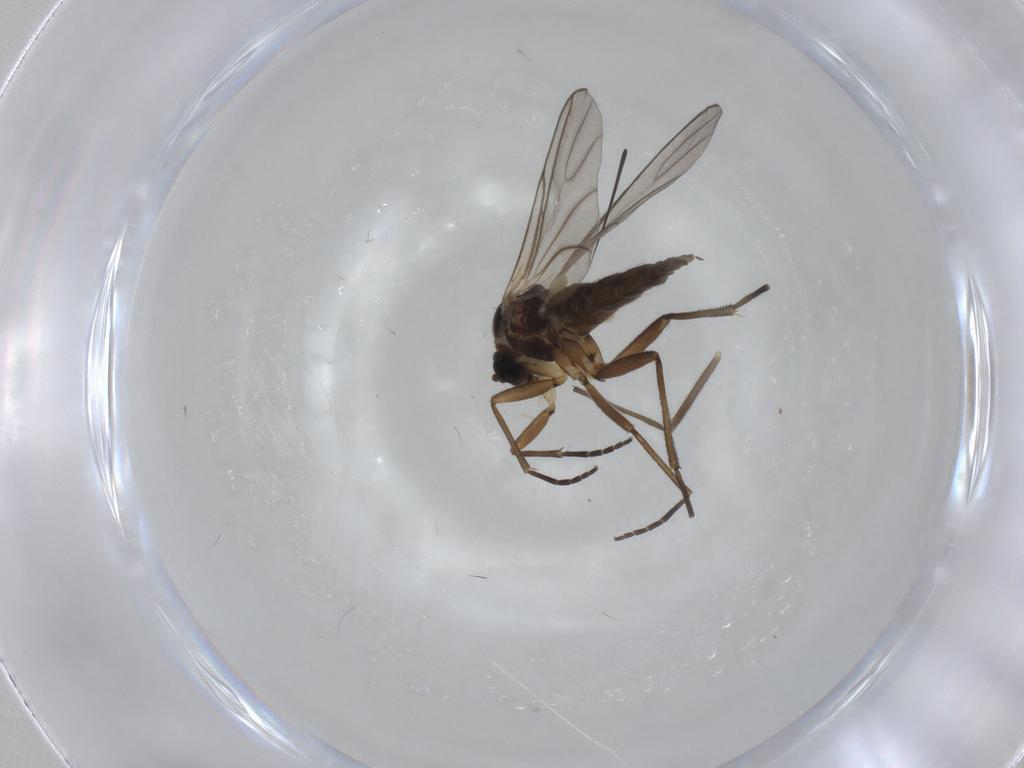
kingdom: Animalia
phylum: Arthropoda
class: Insecta
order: Diptera
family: Chironomidae
